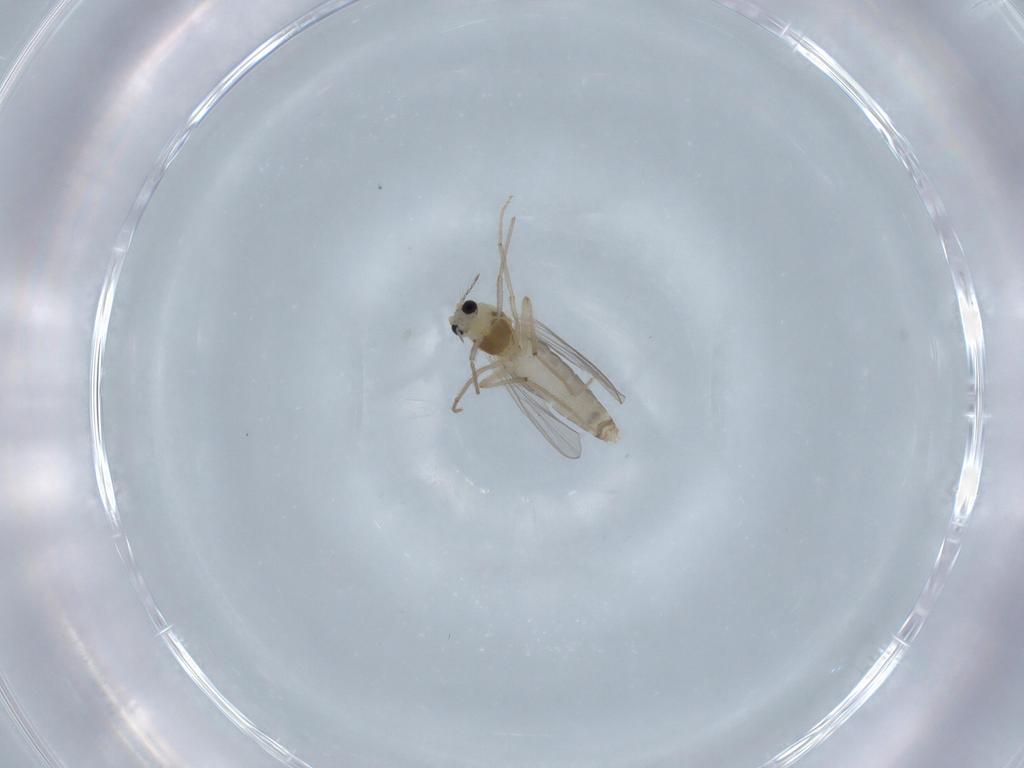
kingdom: Animalia
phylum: Arthropoda
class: Insecta
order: Diptera
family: Chironomidae
